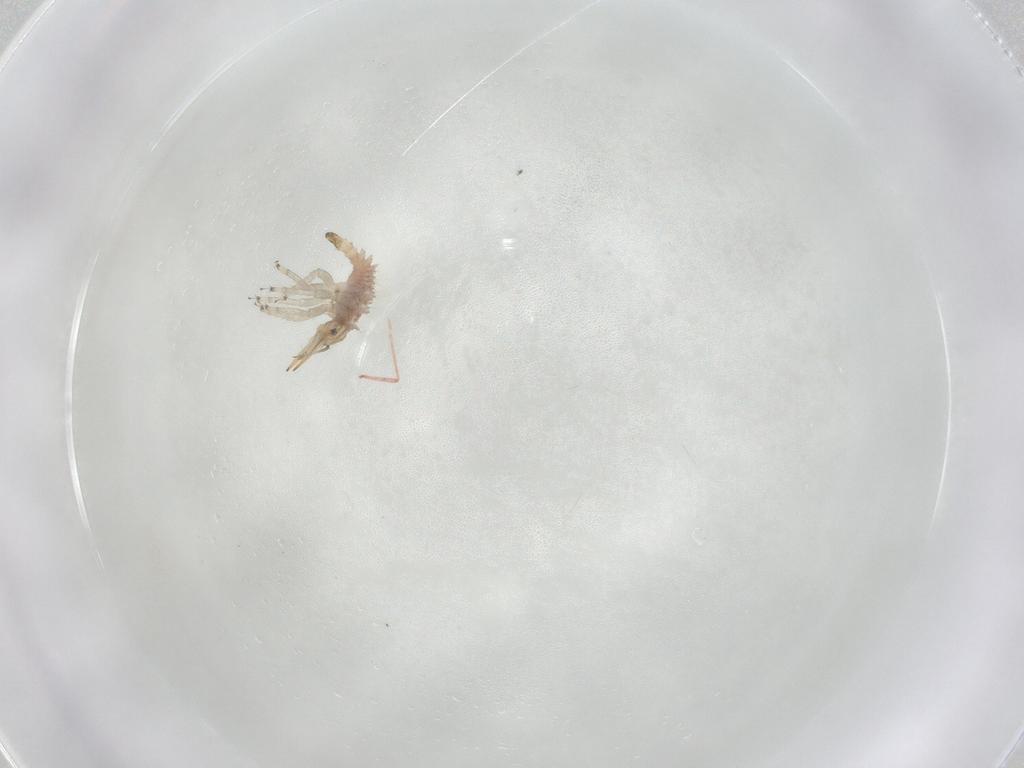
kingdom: Animalia
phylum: Arthropoda
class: Insecta
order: Neuroptera
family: Chrysopidae
